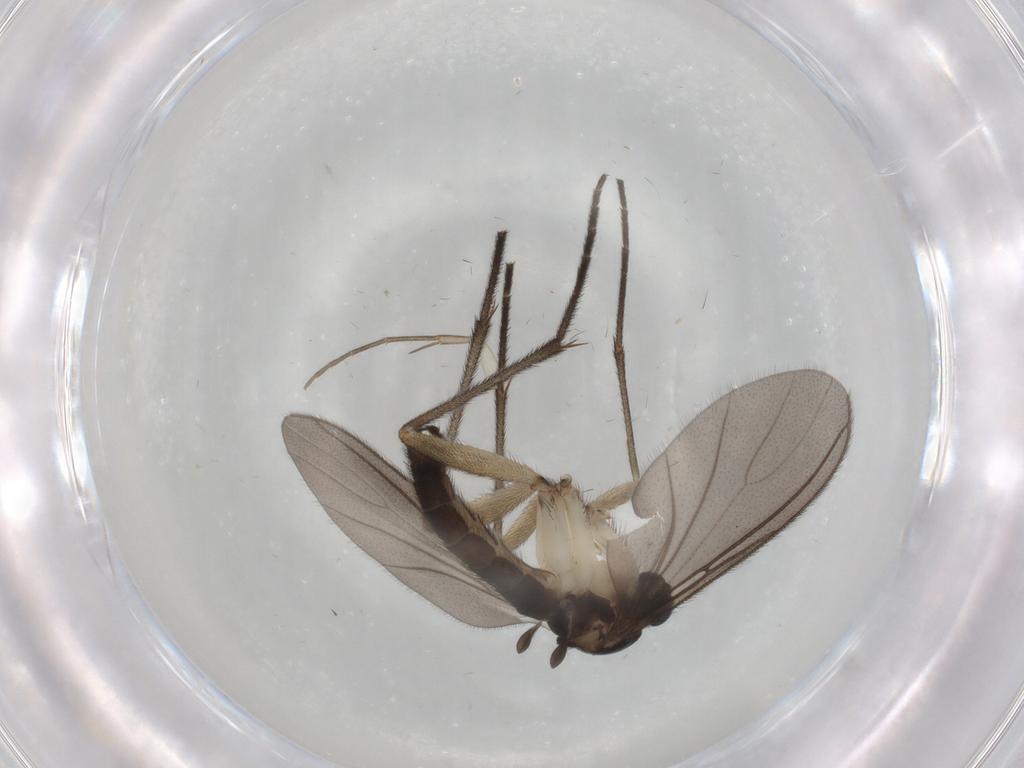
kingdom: Animalia
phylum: Arthropoda
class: Insecta
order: Diptera
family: Sciaridae
